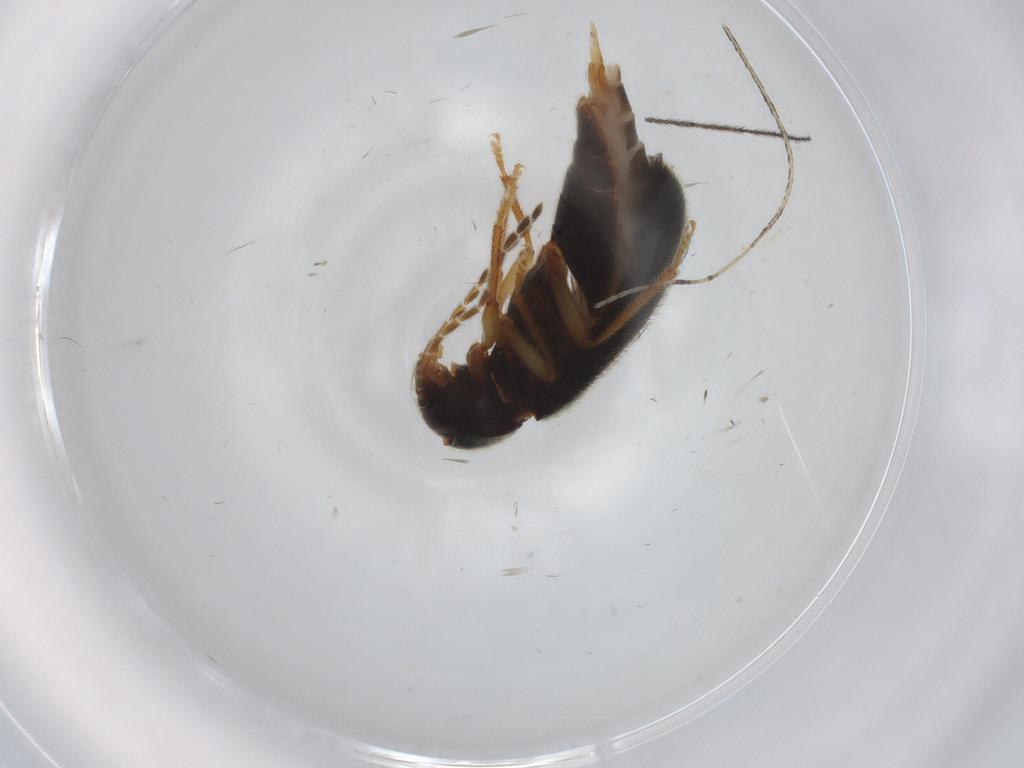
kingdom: Animalia
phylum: Arthropoda
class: Insecta
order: Coleoptera
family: Ptilodactylidae
